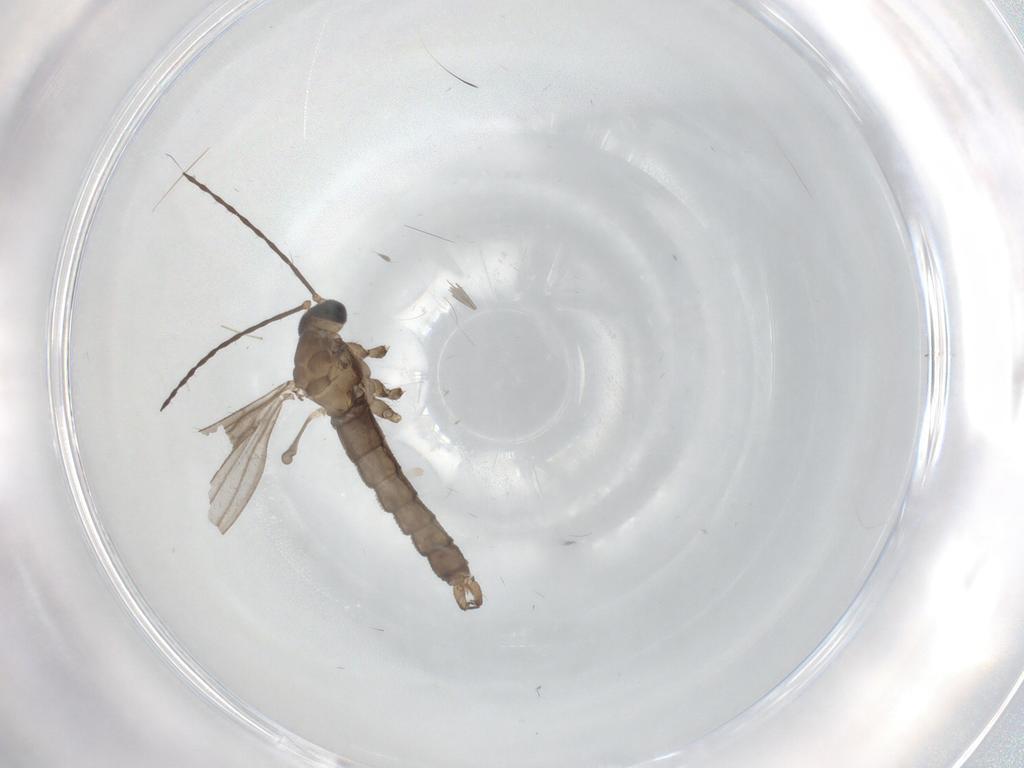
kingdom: Animalia
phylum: Arthropoda
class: Insecta
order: Diptera
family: Limoniidae
